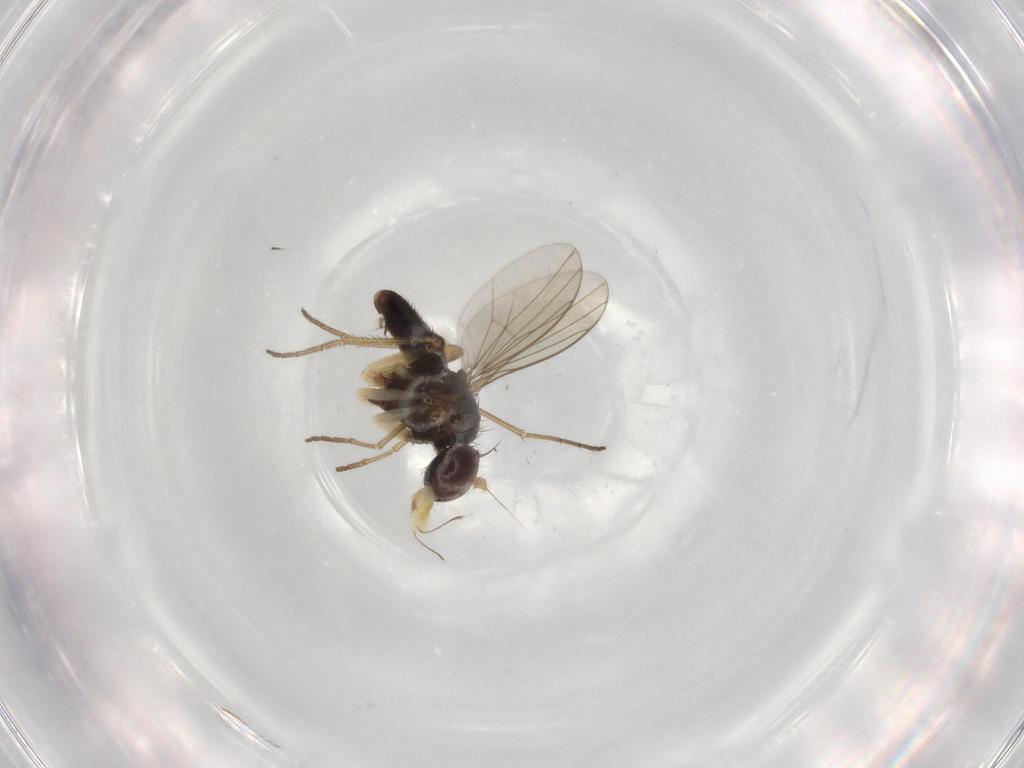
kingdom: Animalia
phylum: Arthropoda
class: Insecta
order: Diptera
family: Dolichopodidae
